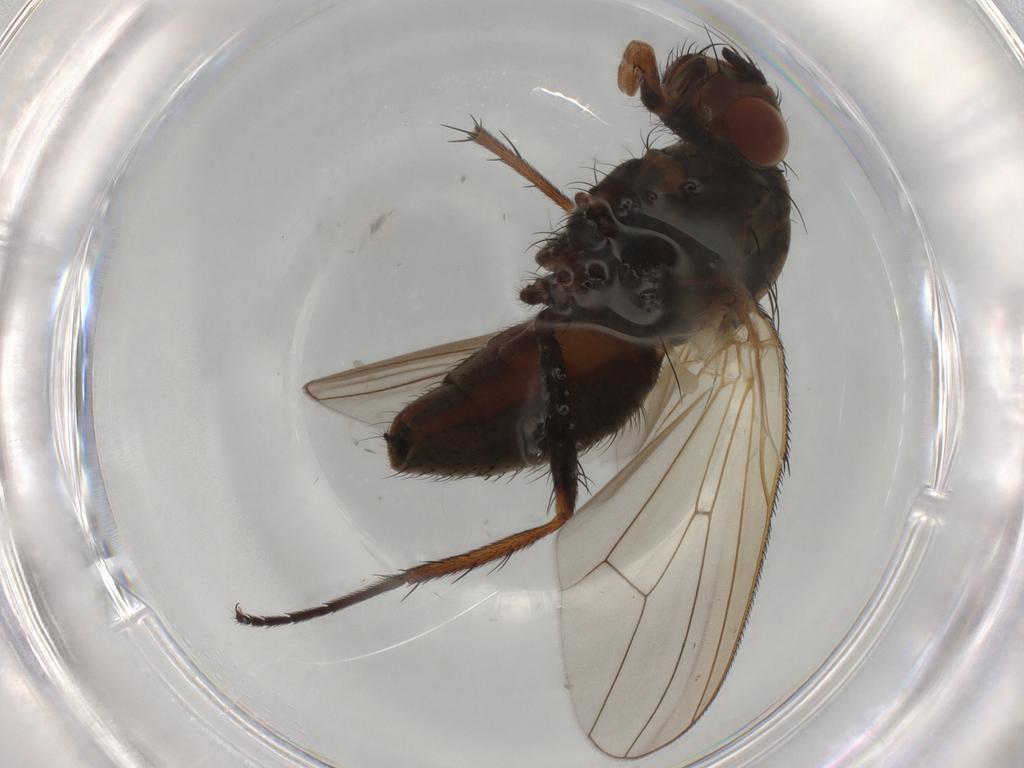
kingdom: Animalia
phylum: Arthropoda
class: Insecta
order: Diptera
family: Anthomyiidae
